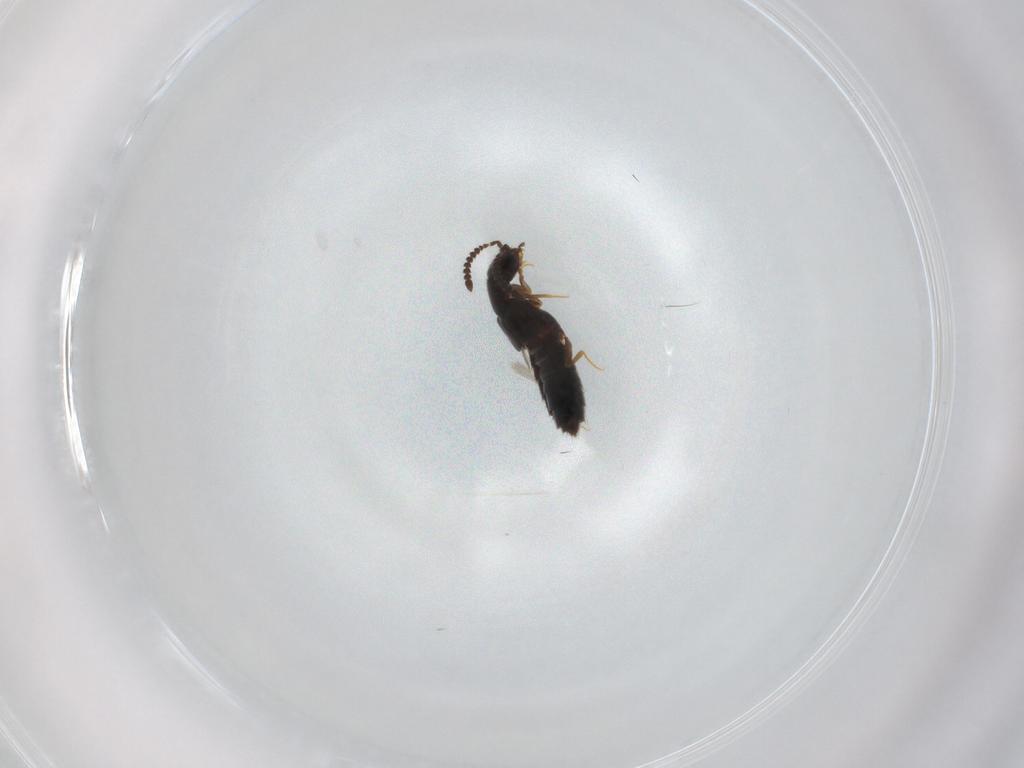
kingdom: Animalia
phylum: Arthropoda
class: Insecta
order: Coleoptera
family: Staphylinidae
